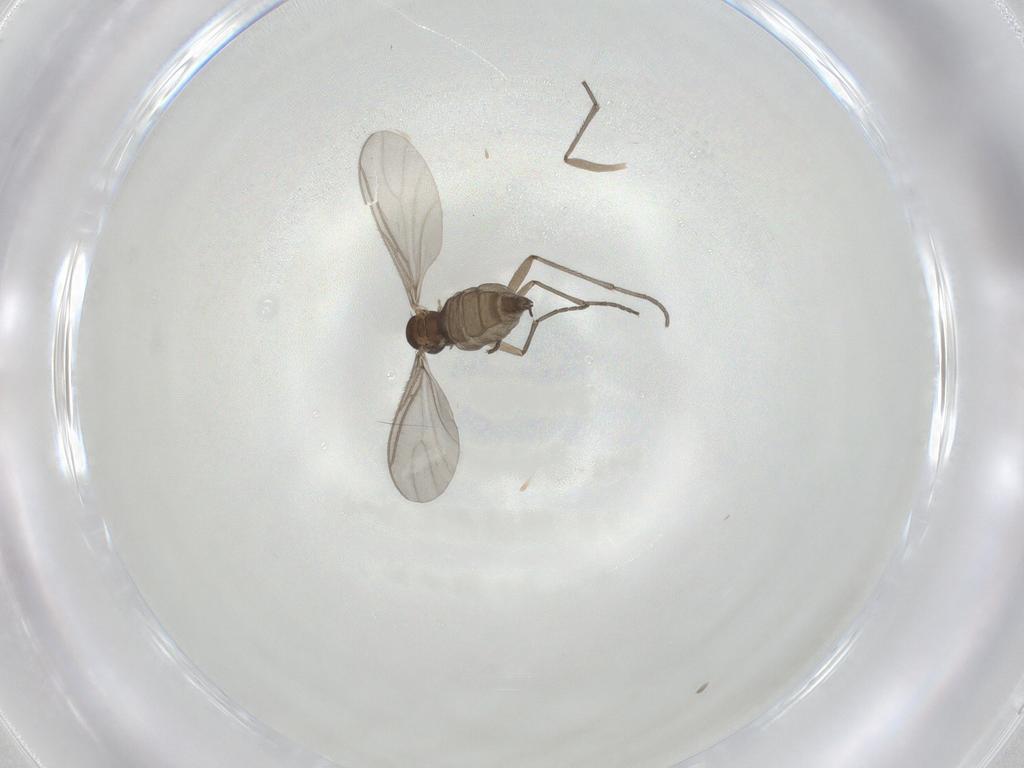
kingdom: Animalia
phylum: Arthropoda
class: Insecta
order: Diptera
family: Sciaridae
